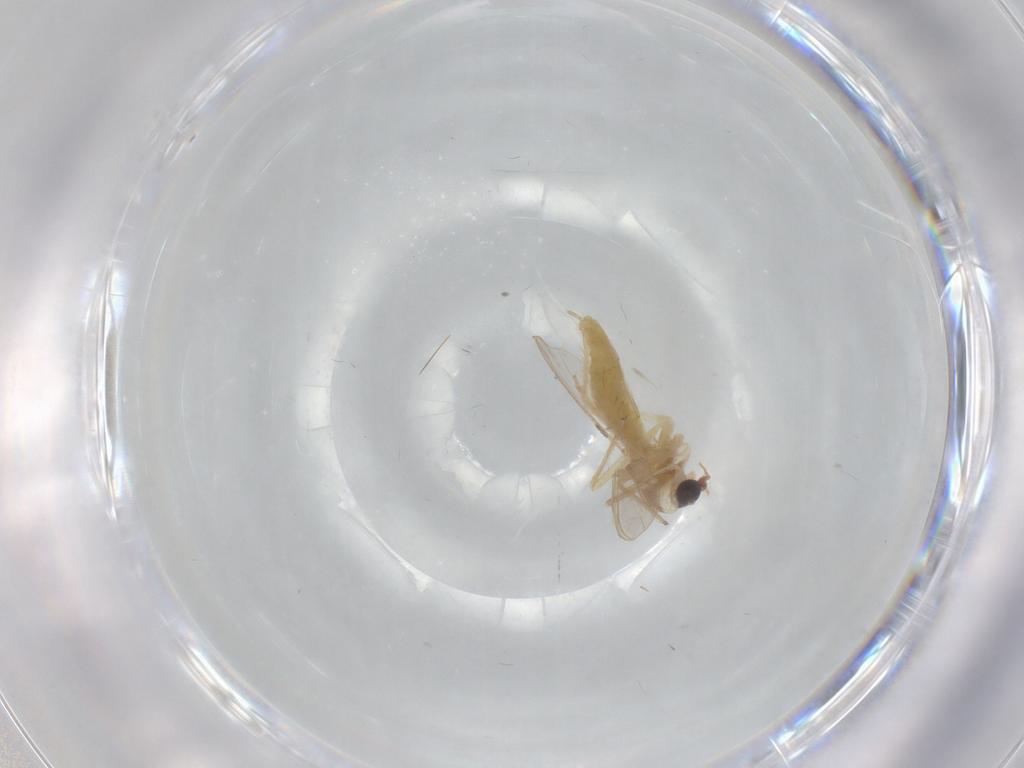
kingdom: Animalia
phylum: Arthropoda
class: Insecta
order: Diptera
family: Chironomidae
